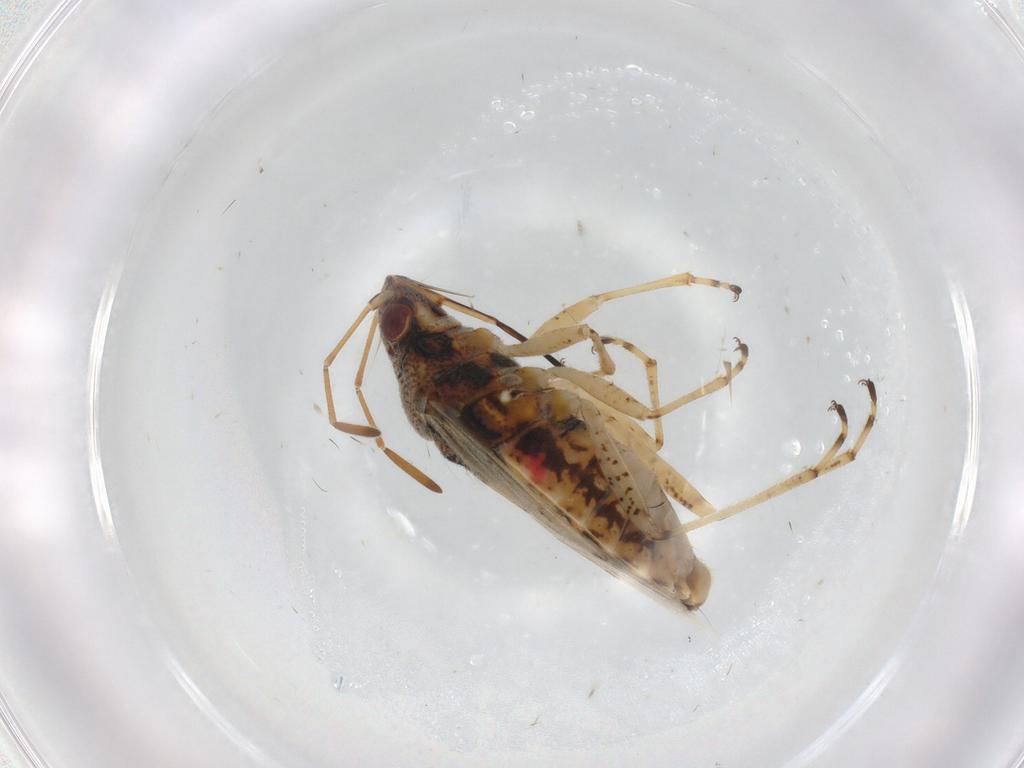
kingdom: Animalia
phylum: Arthropoda
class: Insecta
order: Hemiptera
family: Lygaeidae
